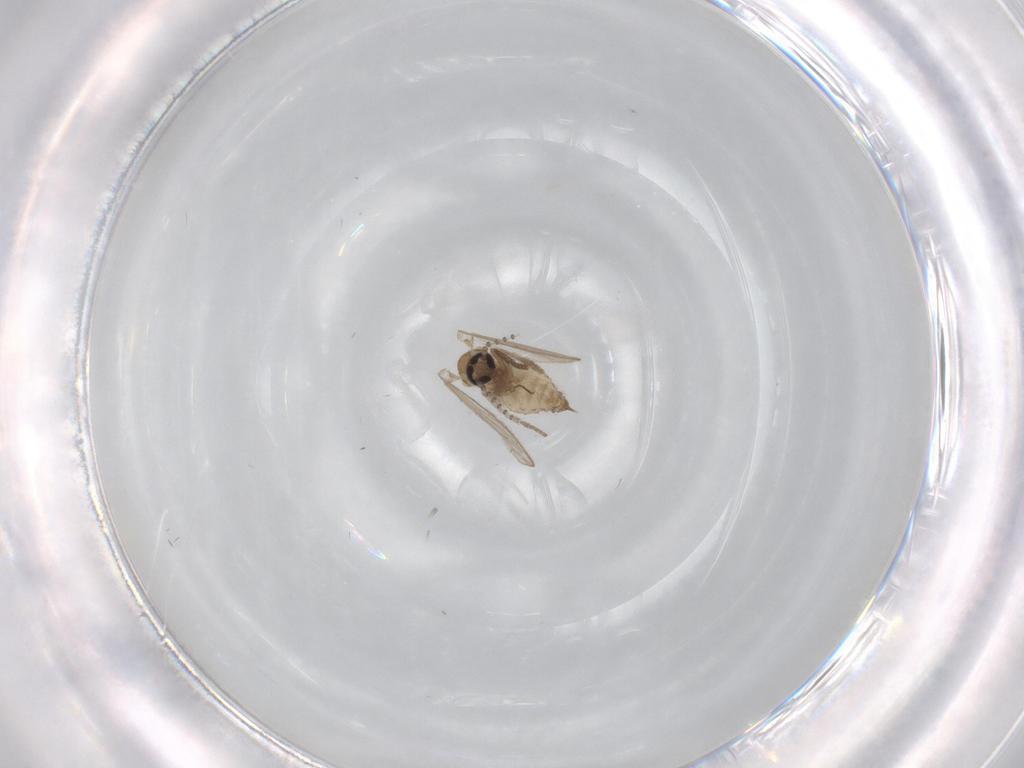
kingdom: Animalia
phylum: Arthropoda
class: Insecta
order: Diptera
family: Psychodidae
